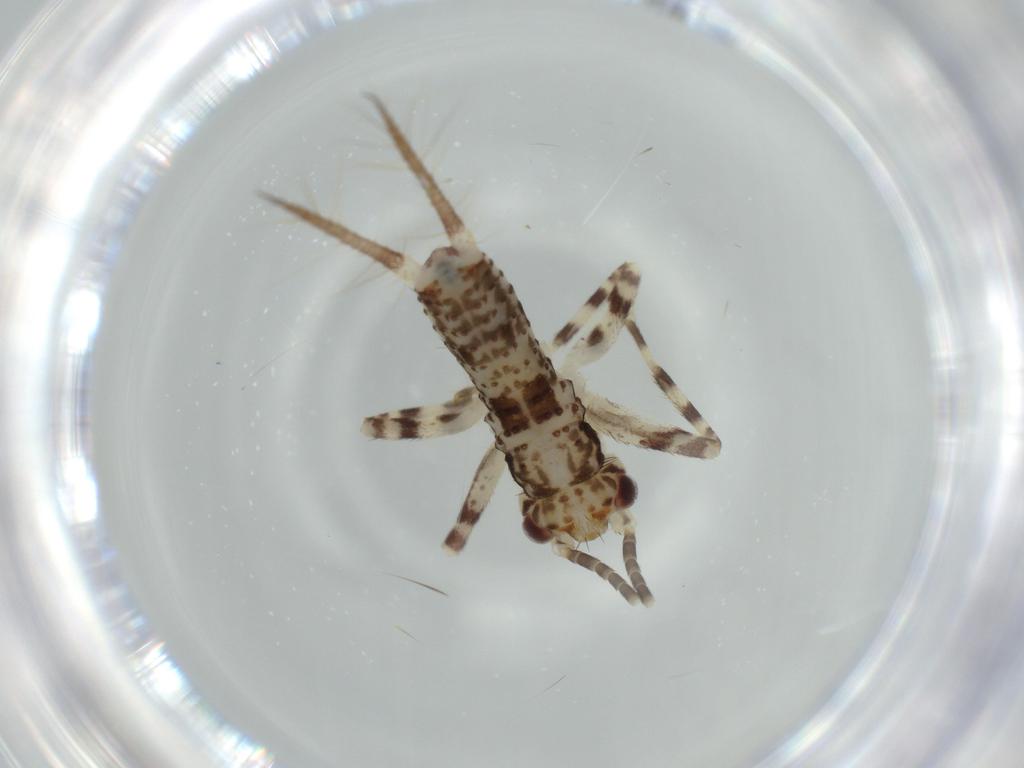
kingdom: Animalia
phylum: Arthropoda
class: Insecta
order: Orthoptera
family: Gryllidae
